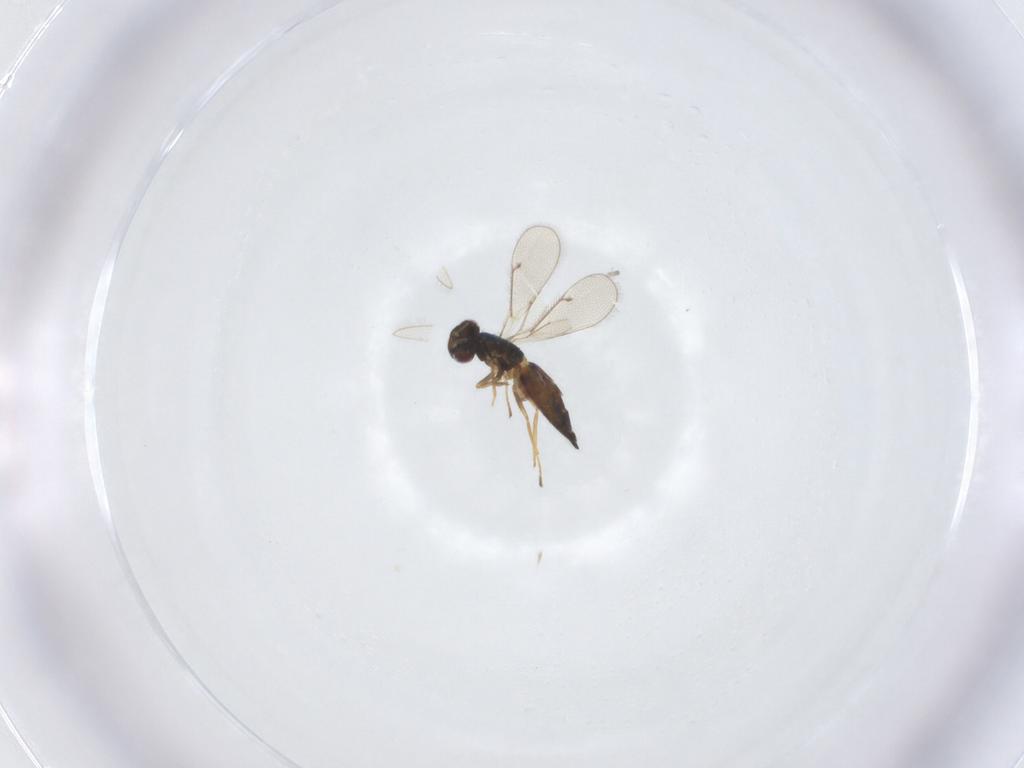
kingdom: Animalia
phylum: Arthropoda
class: Insecta
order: Hymenoptera
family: Eulophidae
